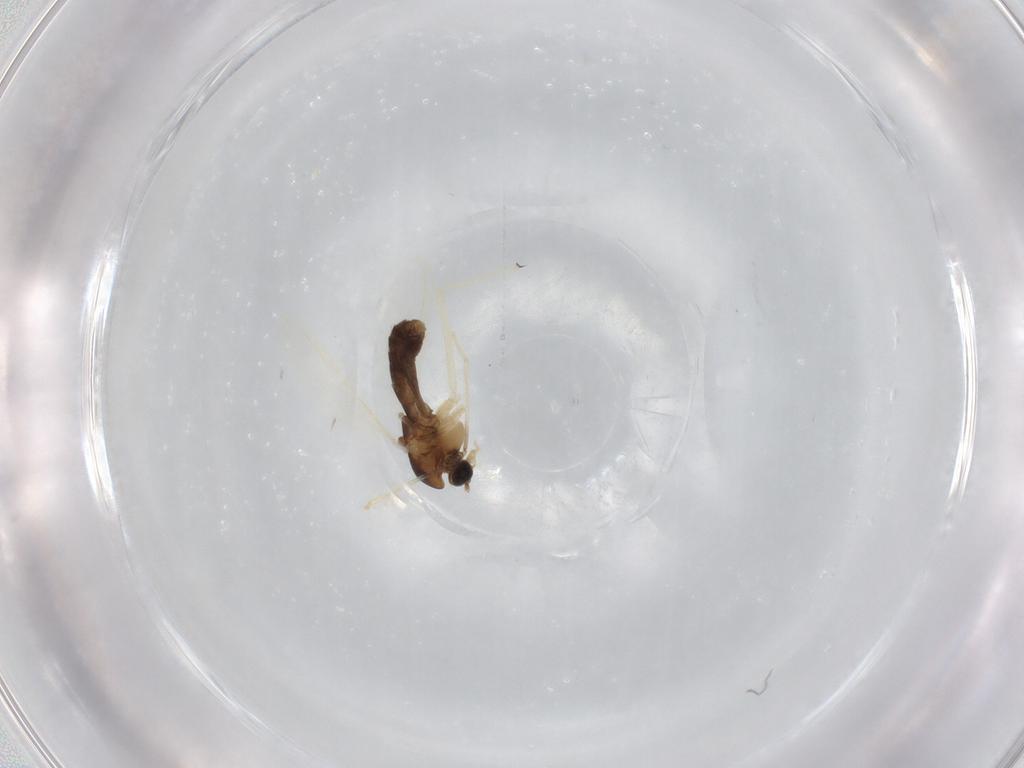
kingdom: Animalia
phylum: Arthropoda
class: Insecta
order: Diptera
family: Chironomidae
